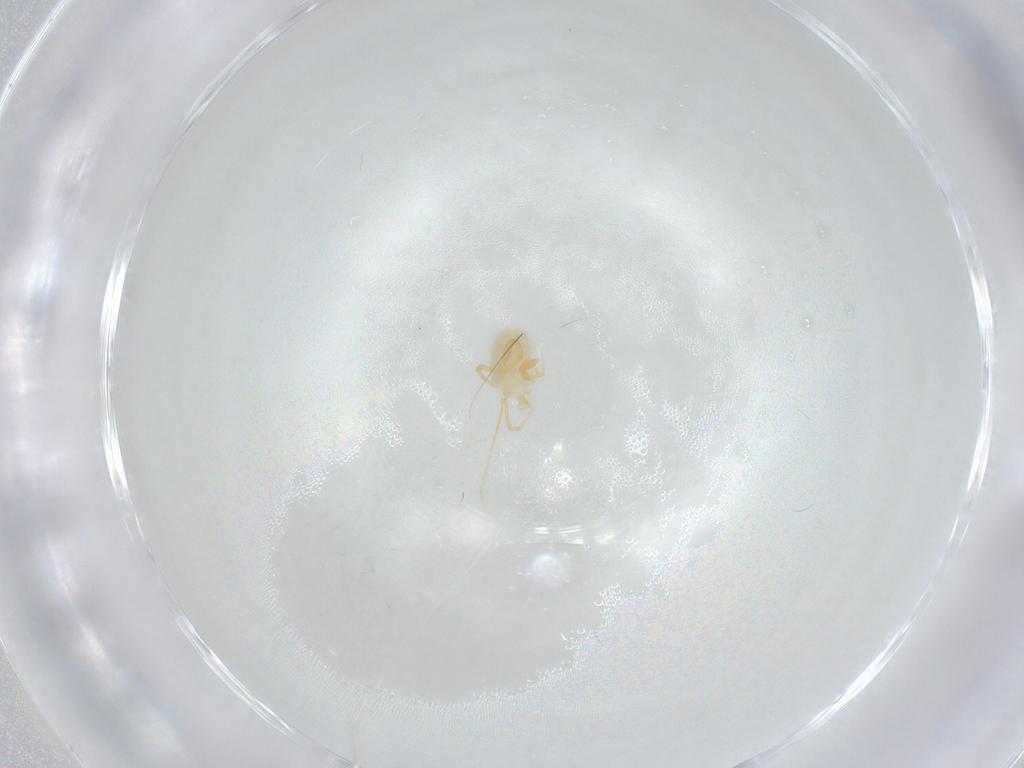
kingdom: Animalia
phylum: Arthropoda
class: Arachnida
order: Trombidiformes
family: Eupodidae
